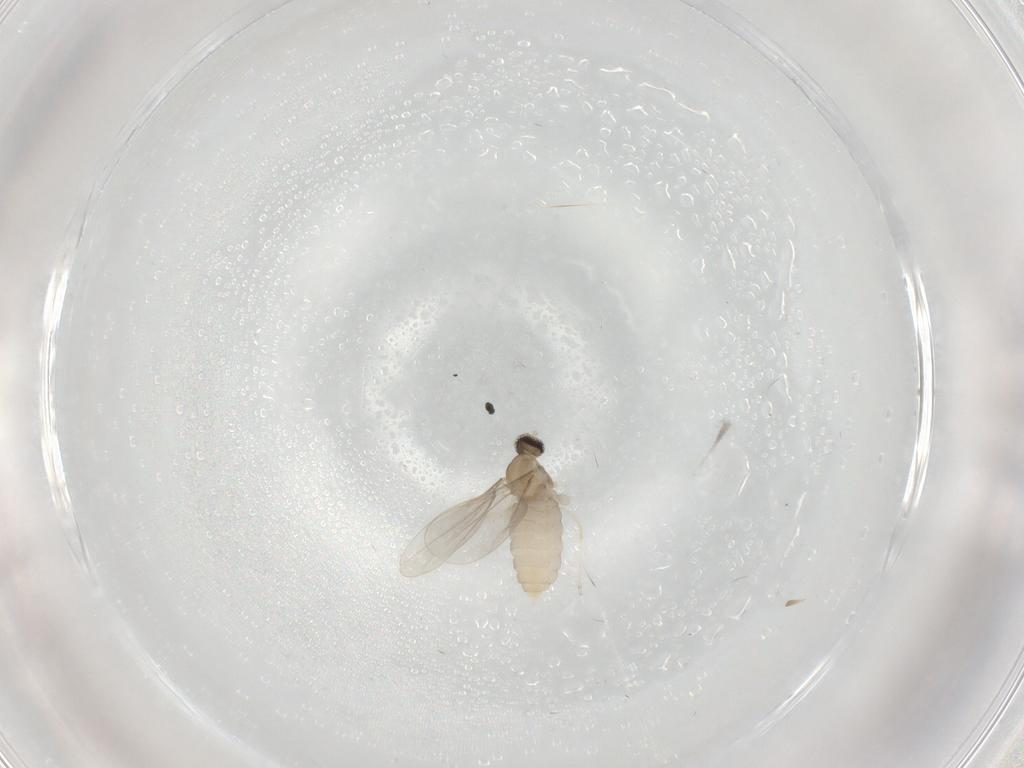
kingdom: Animalia
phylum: Arthropoda
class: Insecta
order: Diptera
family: Cecidomyiidae
